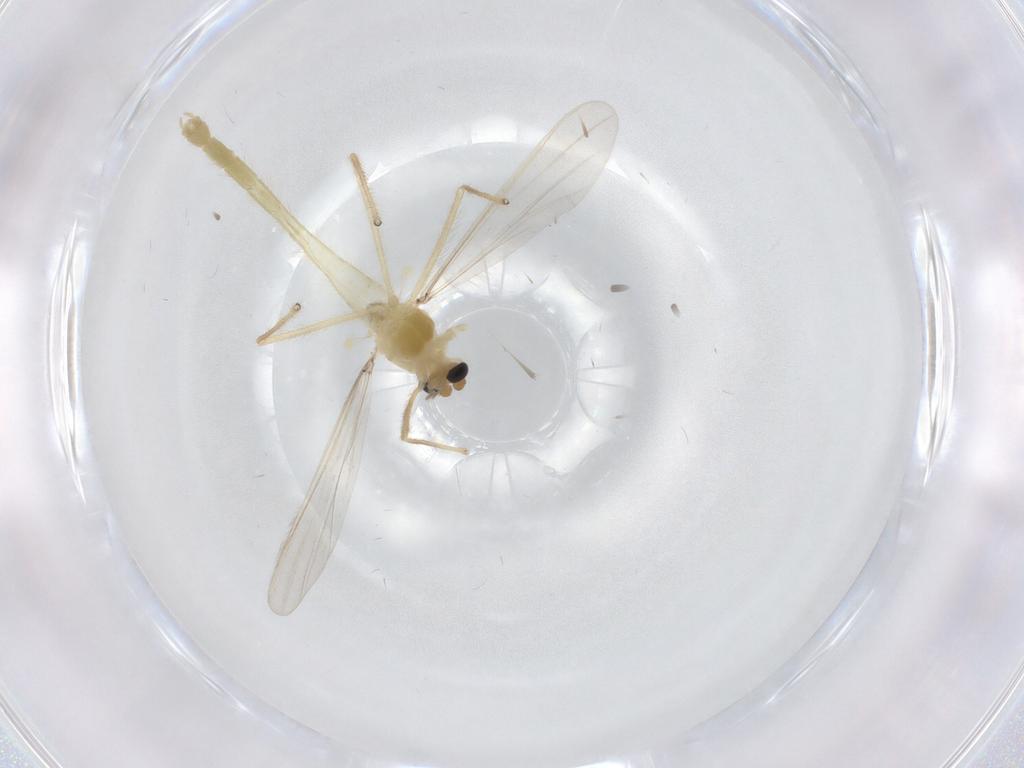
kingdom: Animalia
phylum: Arthropoda
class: Insecta
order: Diptera
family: Chironomidae
